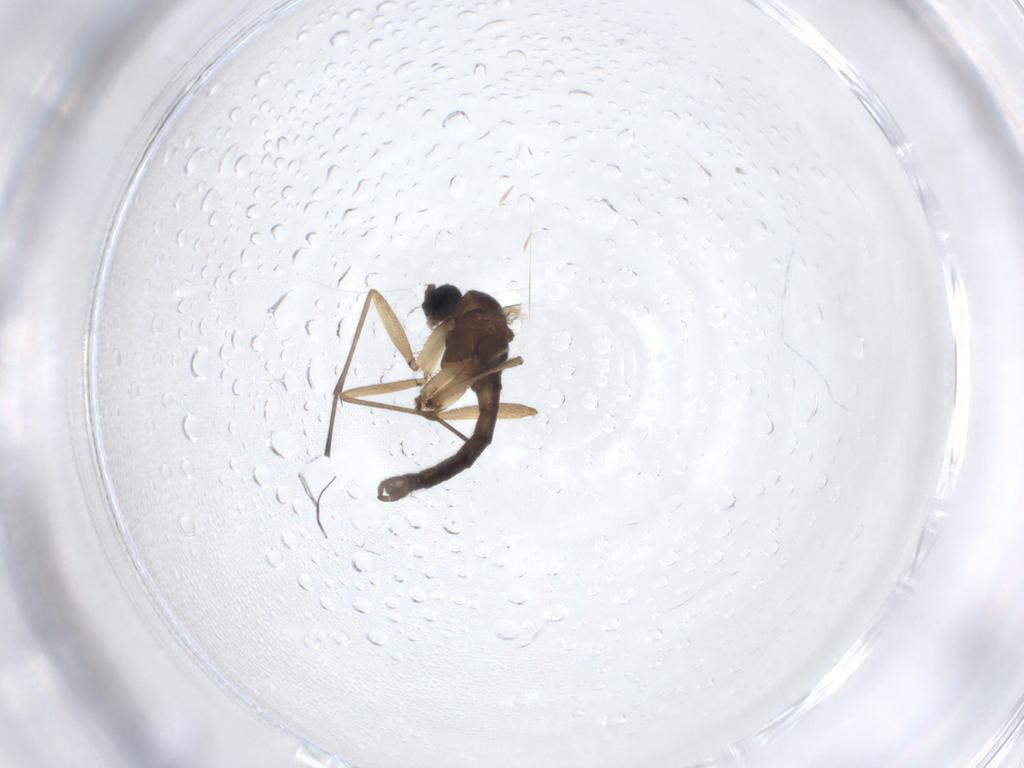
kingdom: Animalia
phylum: Arthropoda
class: Insecta
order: Diptera
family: Sciaridae
